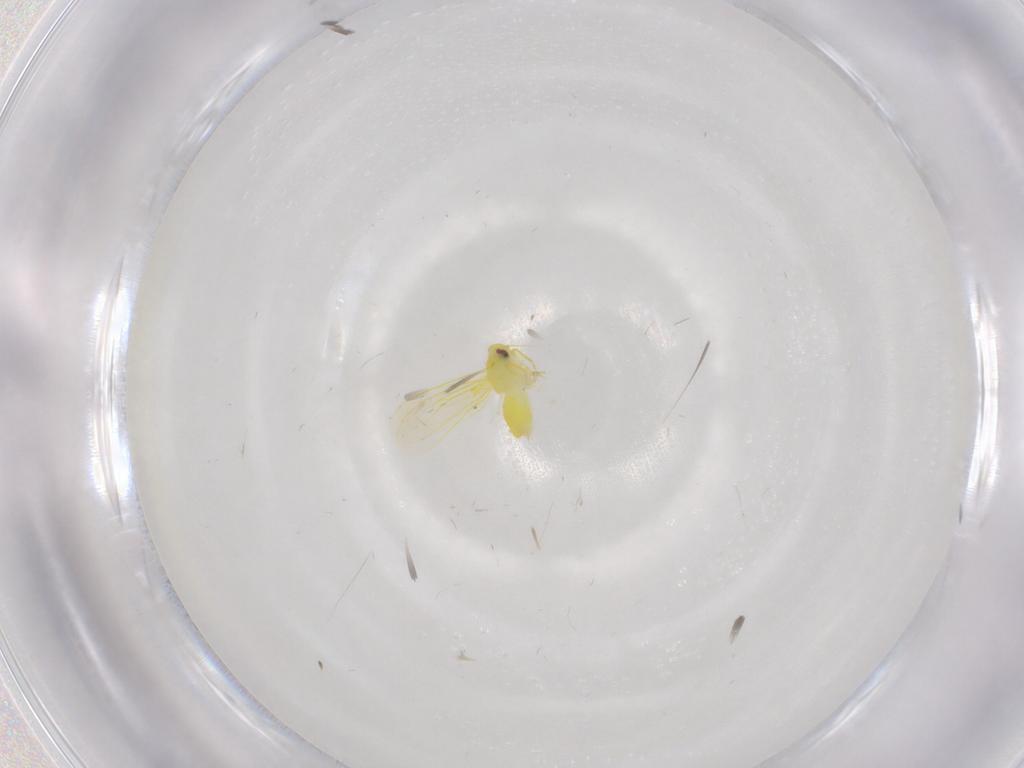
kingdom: Animalia
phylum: Arthropoda
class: Insecta
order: Hemiptera
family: Aleyrodidae
